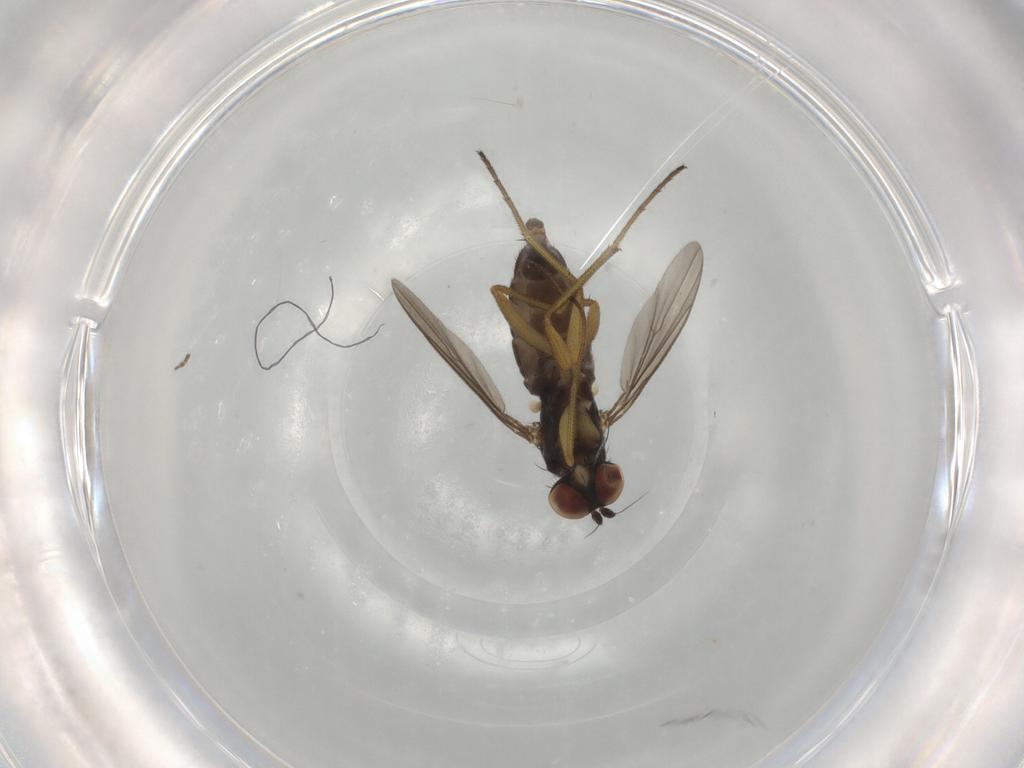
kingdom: Animalia
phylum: Arthropoda
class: Insecta
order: Diptera
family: Dolichopodidae
